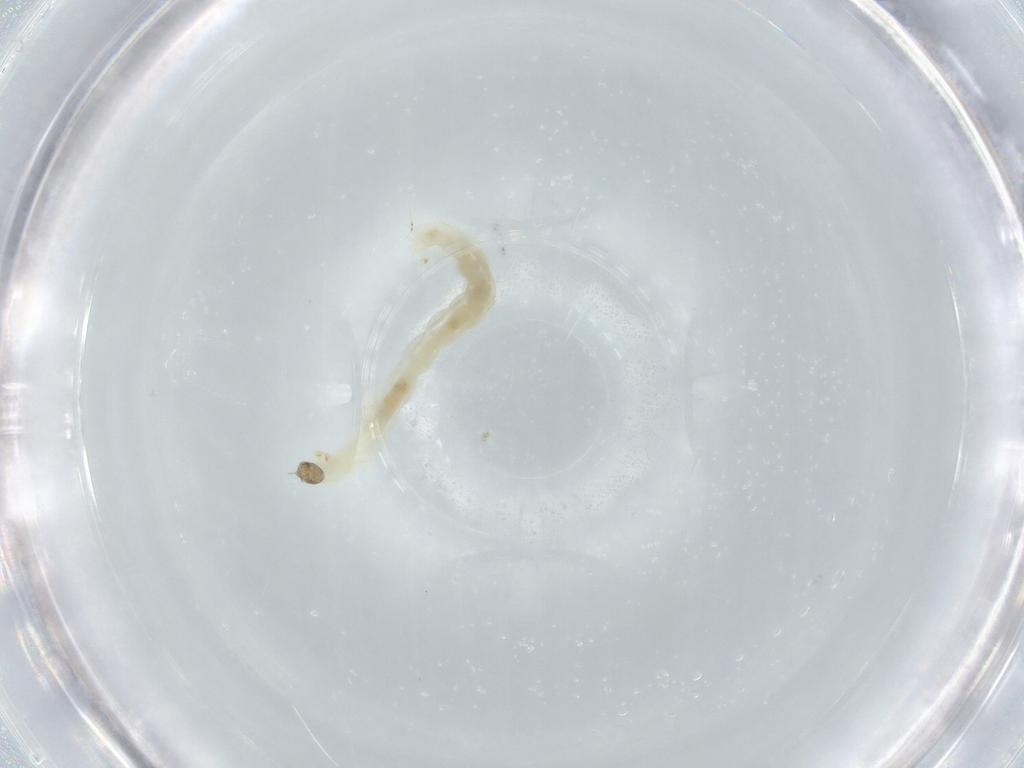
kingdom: Animalia
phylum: Arthropoda
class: Insecta
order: Diptera
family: Chironomidae
